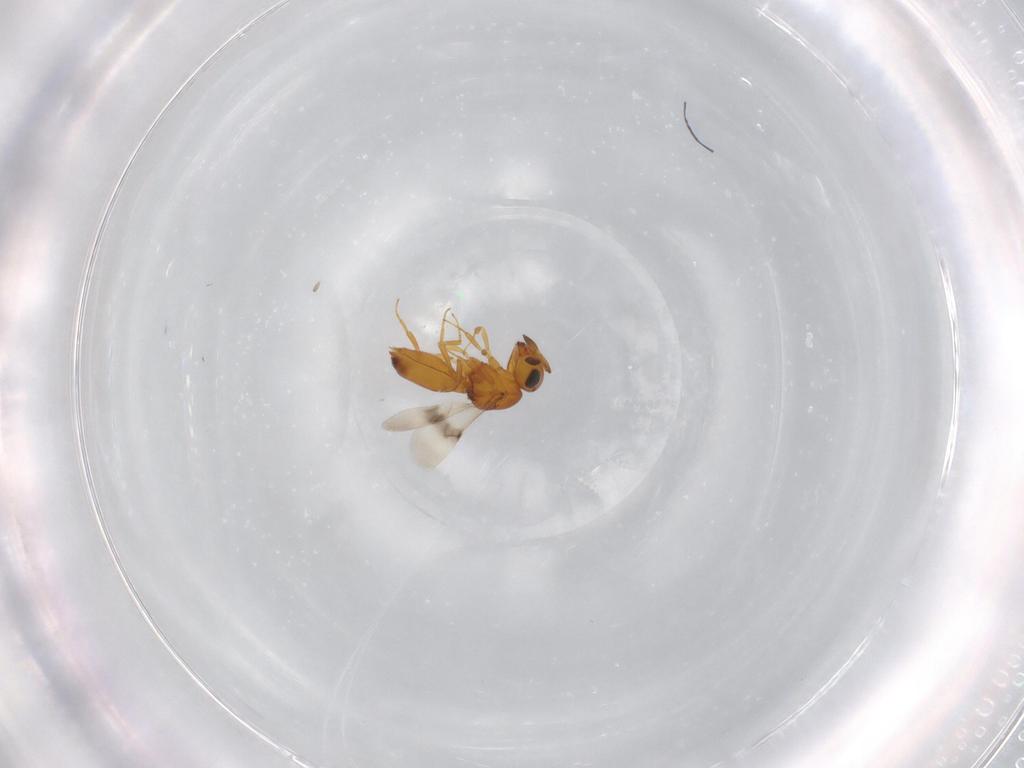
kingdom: Animalia
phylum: Arthropoda
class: Insecta
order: Hymenoptera
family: Scelionidae
